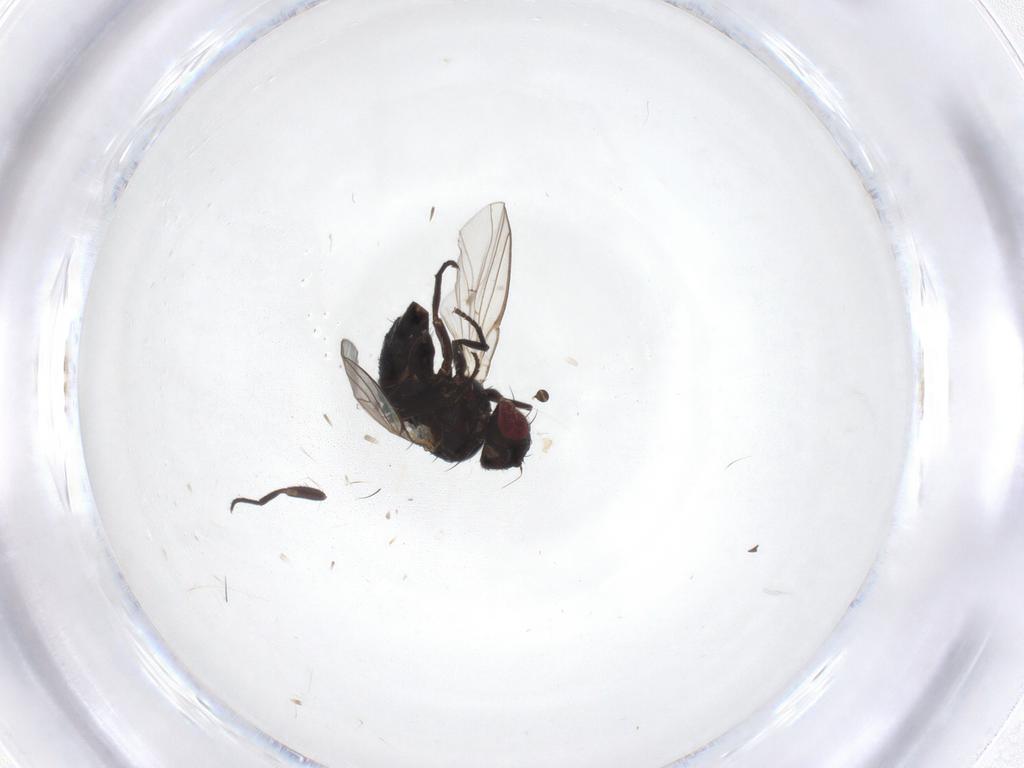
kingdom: Animalia
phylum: Arthropoda
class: Insecta
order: Diptera
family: Agromyzidae
